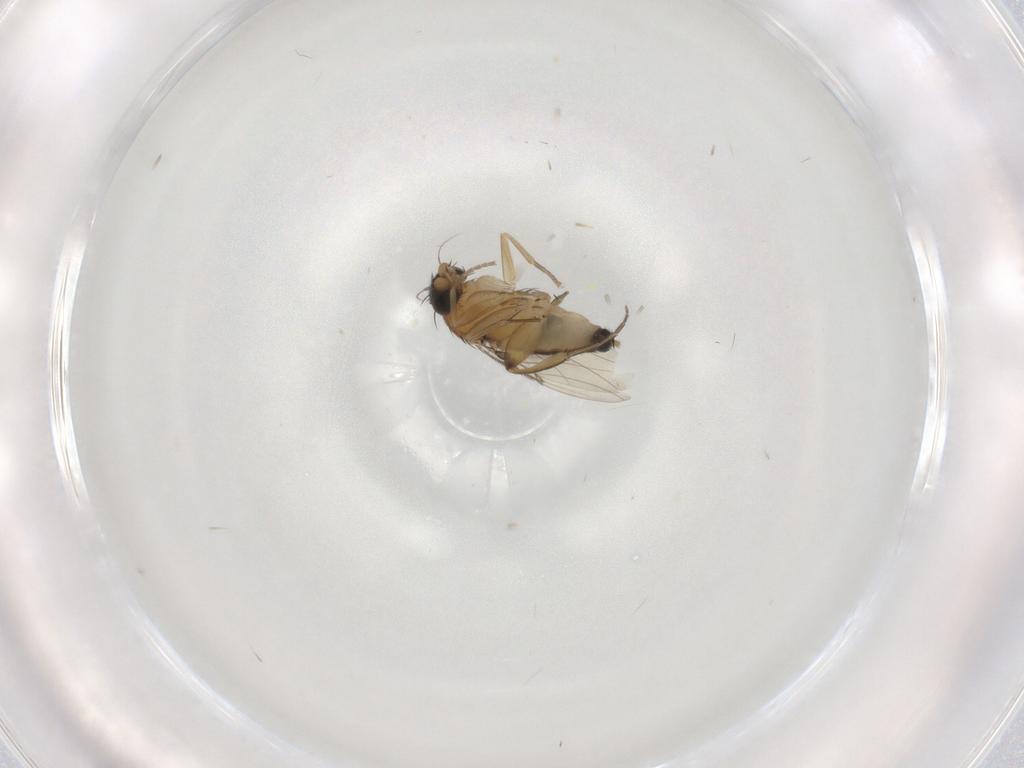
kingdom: Animalia
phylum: Arthropoda
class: Insecta
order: Diptera
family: Phoridae
